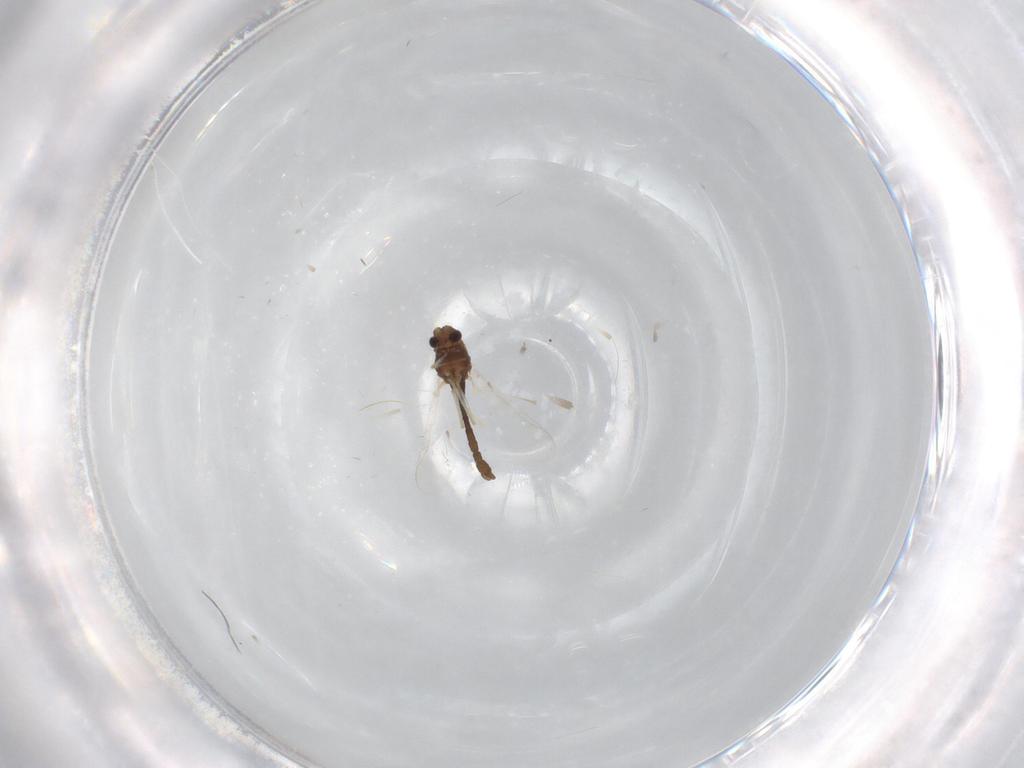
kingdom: Animalia
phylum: Arthropoda
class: Insecta
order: Diptera
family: Chironomidae
